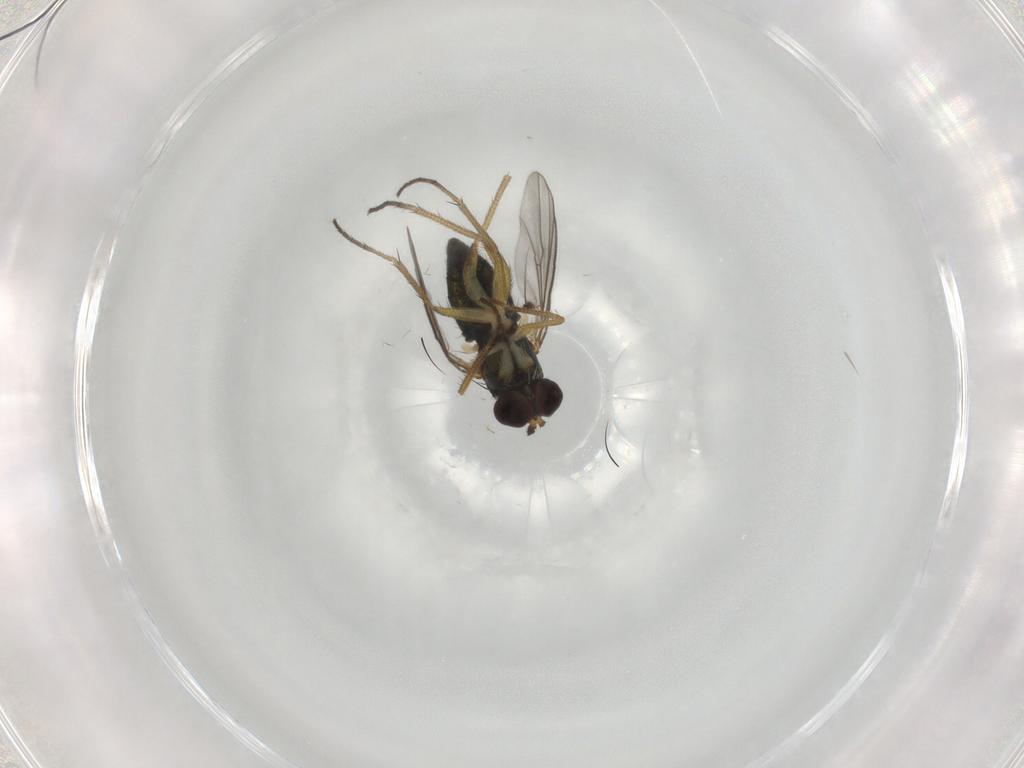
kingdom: Animalia
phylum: Arthropoda
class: Insecta
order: Diptera
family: Dolichopodidae
